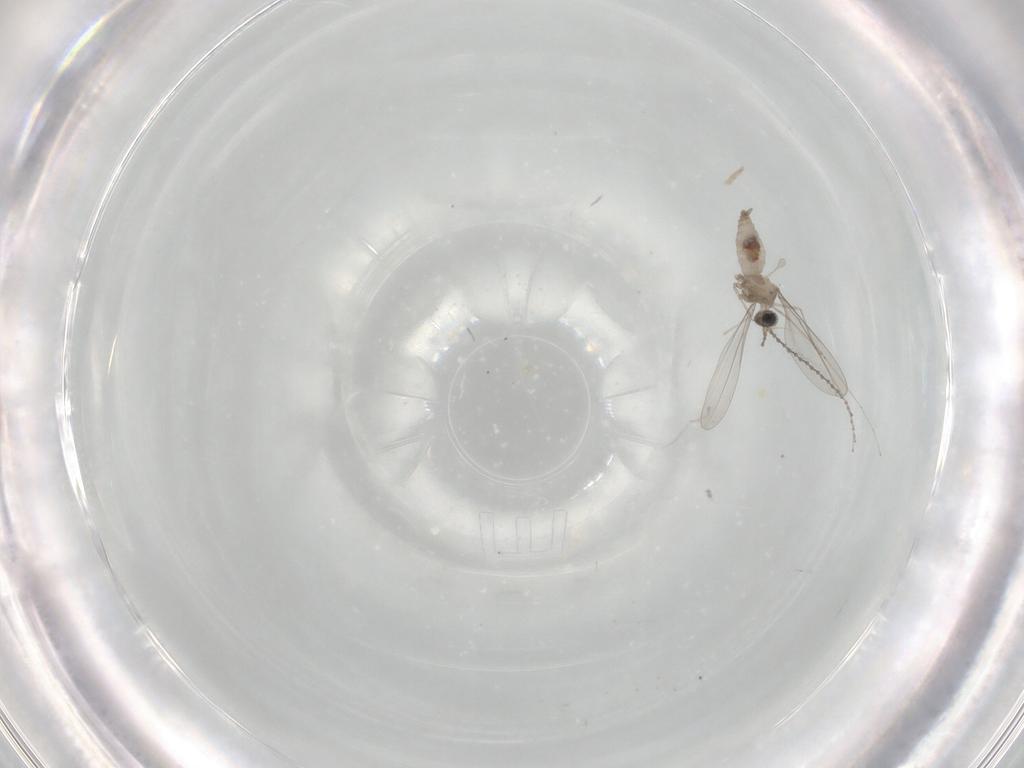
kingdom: Animalia
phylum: Arthropoda
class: Insecta
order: Diptera
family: Cecidomyiidae
